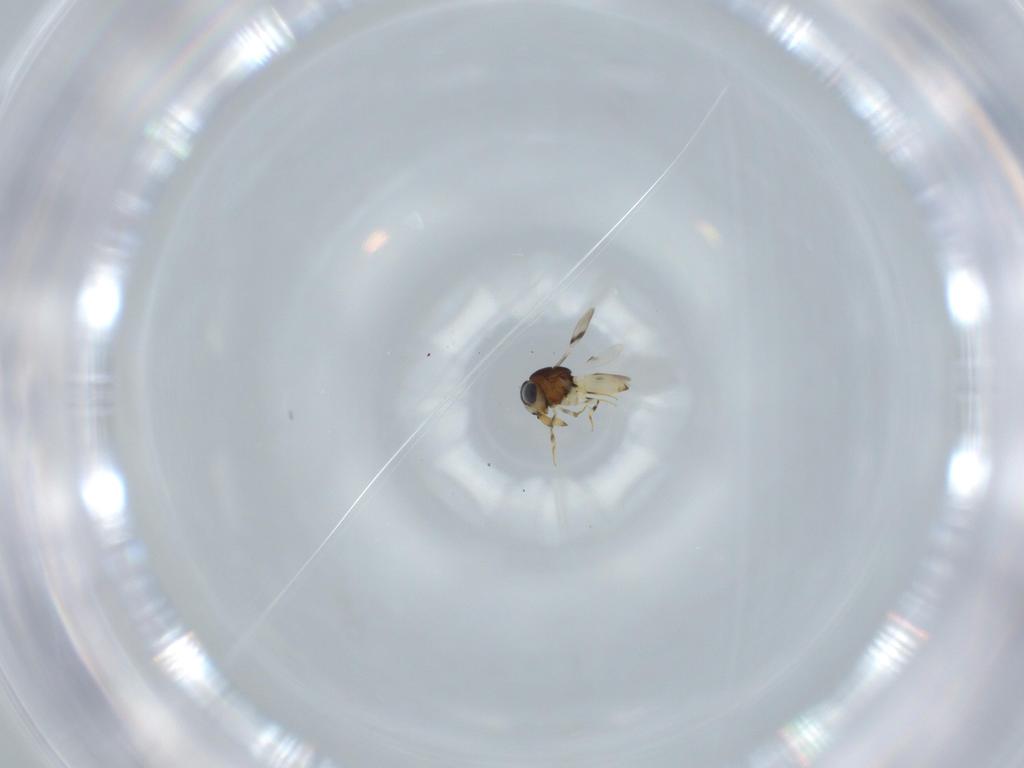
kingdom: Animalia
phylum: Arthropoda
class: Insecta
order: Hymenoptera
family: Scelionidae
